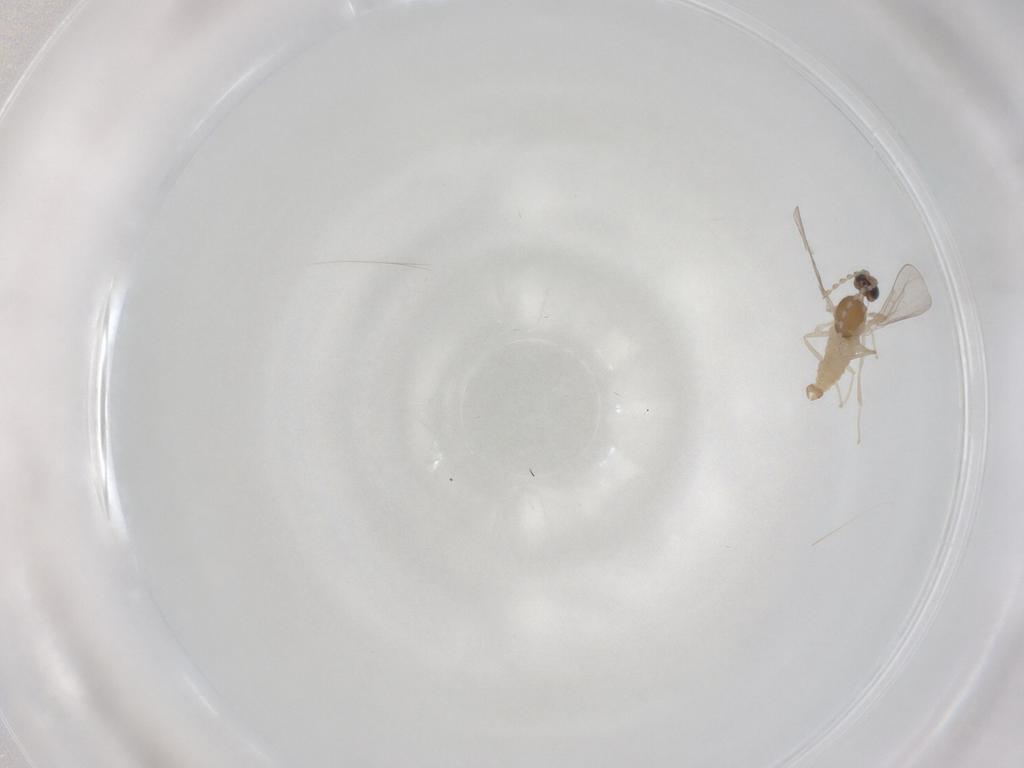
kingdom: Animalia
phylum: Arthropoda
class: Insecta
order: Diptera
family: Cecidomyiidae
